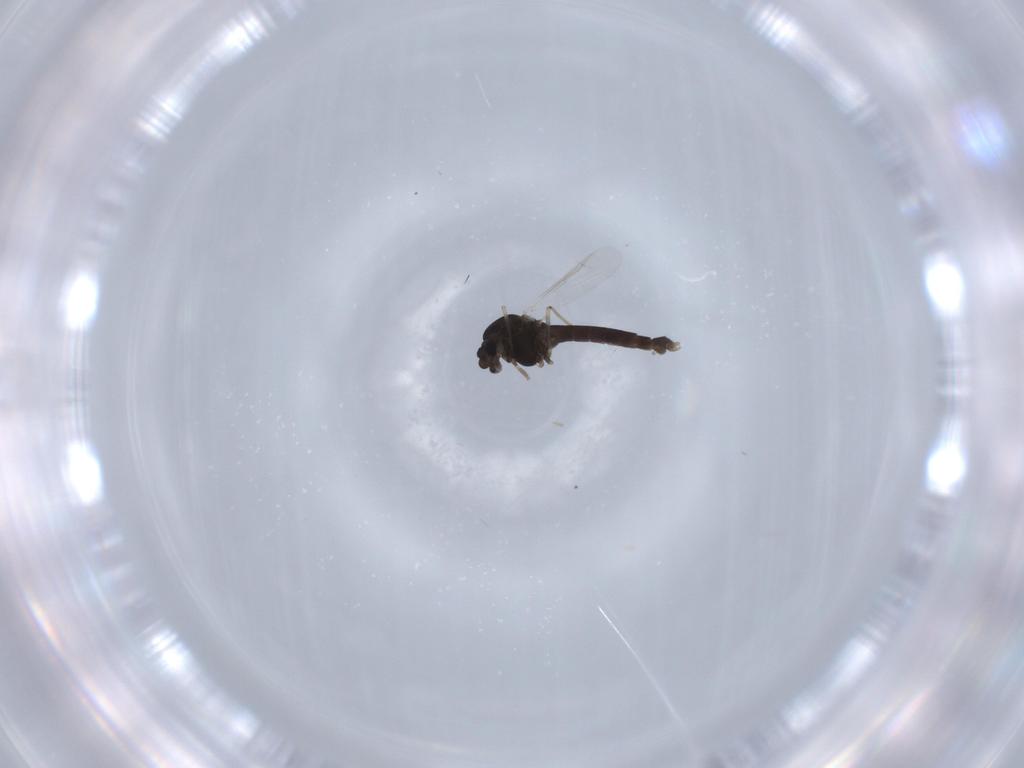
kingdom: Animalia
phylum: Arthropoda
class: Insecta
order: Diptera
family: Chironomidae
